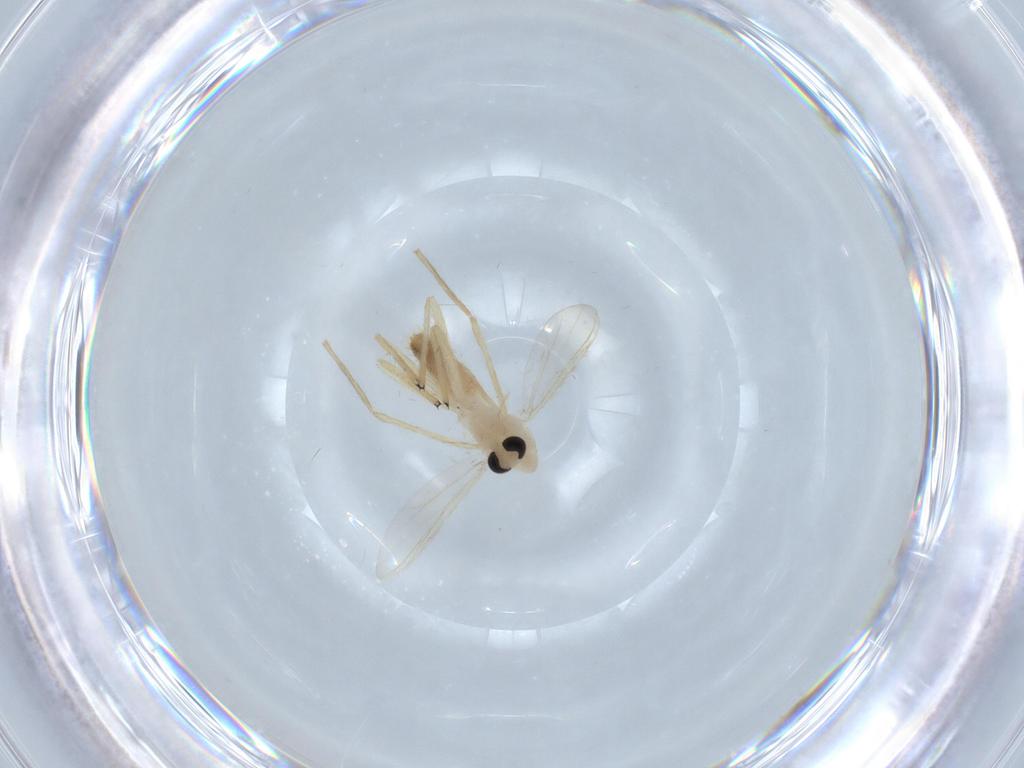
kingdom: Animalia
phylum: Arthropoda
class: Insecta
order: Diptera
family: Chironomidae
